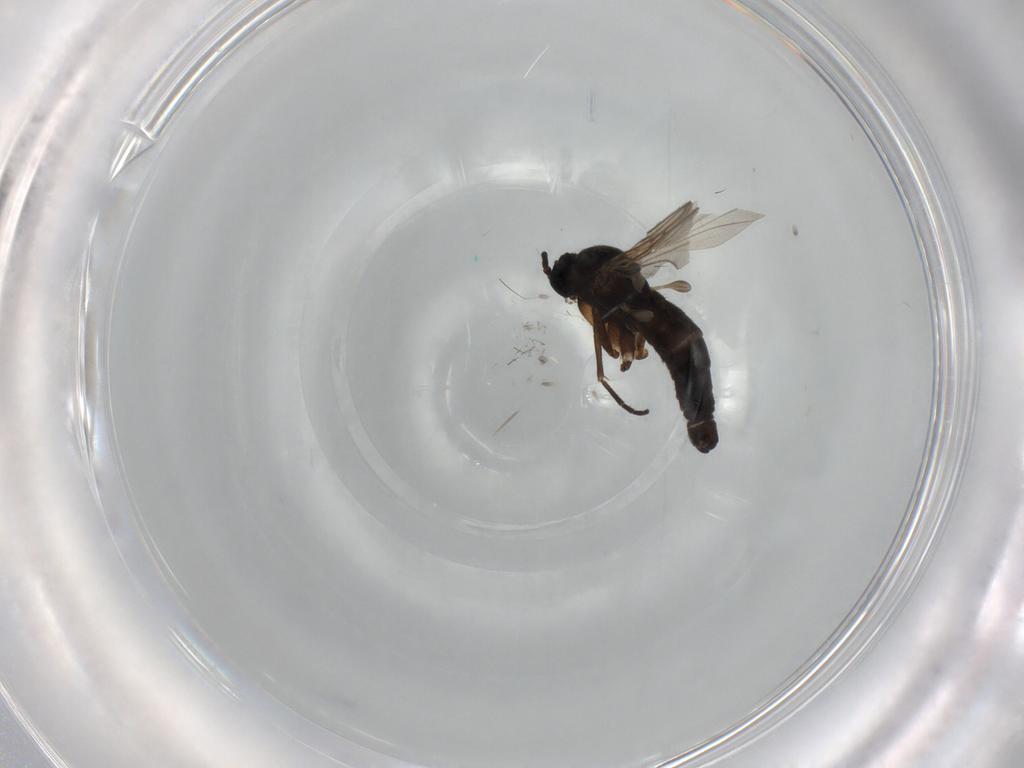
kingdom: Animalia
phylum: Arthropoda
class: Insecta
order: Diptera
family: Sciaridae
